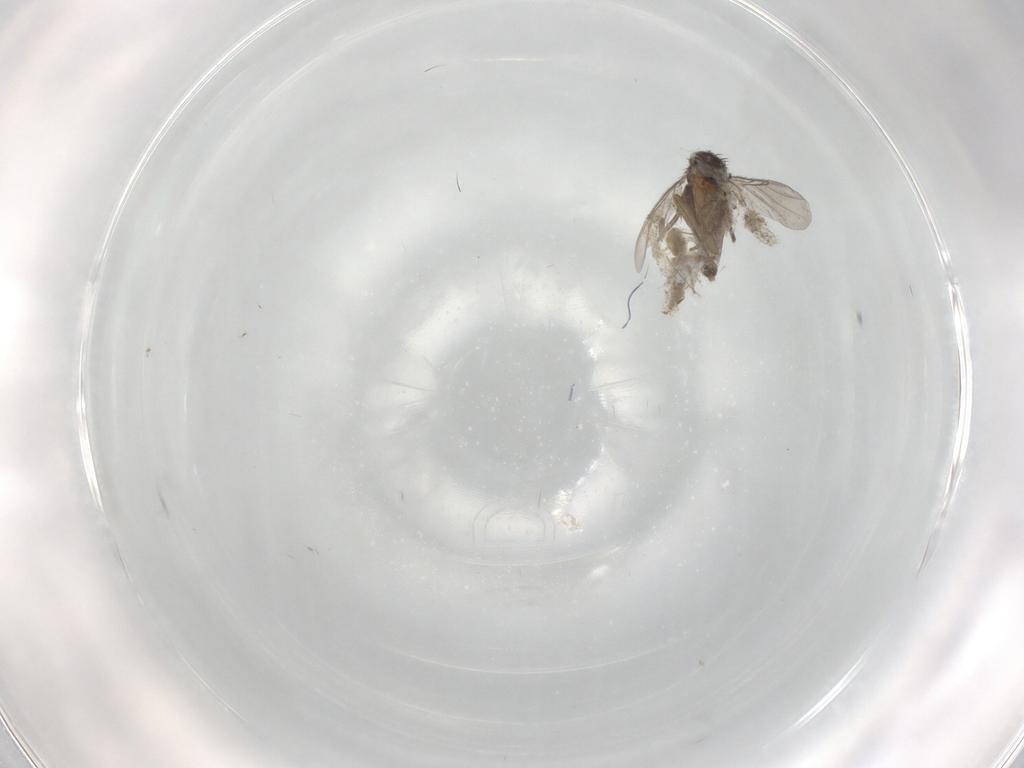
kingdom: Animalia
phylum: Arthropoda
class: Insecta
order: Diptera
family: Phoridae
